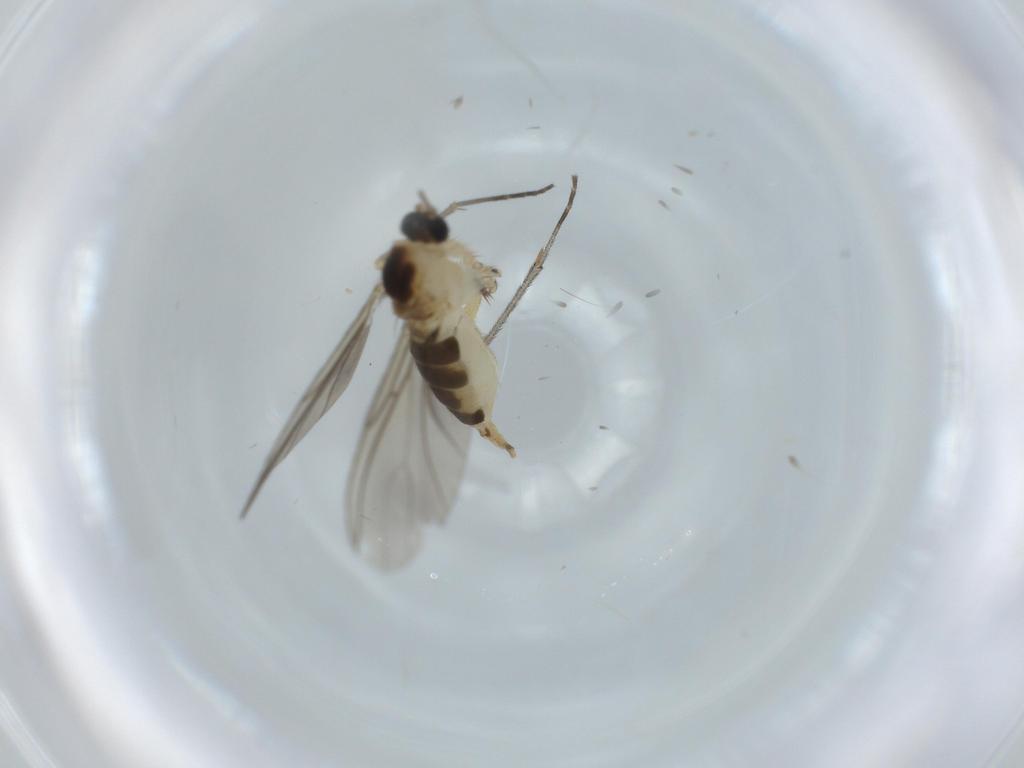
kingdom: Animalia
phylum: Arthropoda
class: Insecta
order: Diptera
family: Sciaridae
